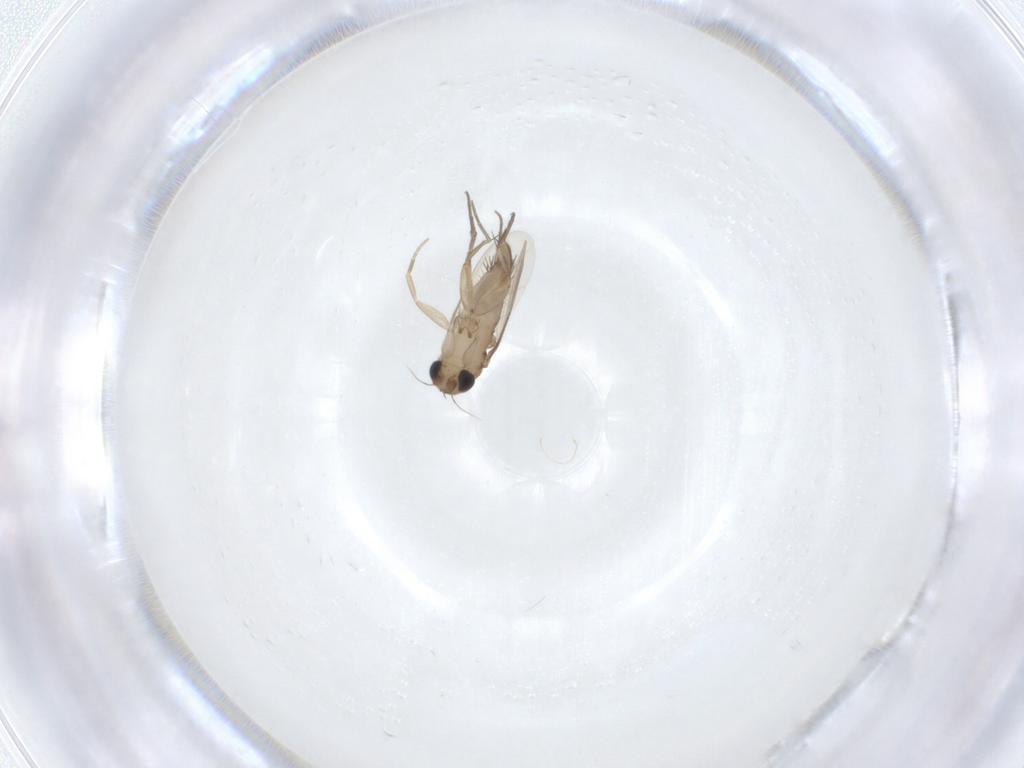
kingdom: Animalia
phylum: Arthropoda
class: Insecta
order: Diptera
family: Phoridae
